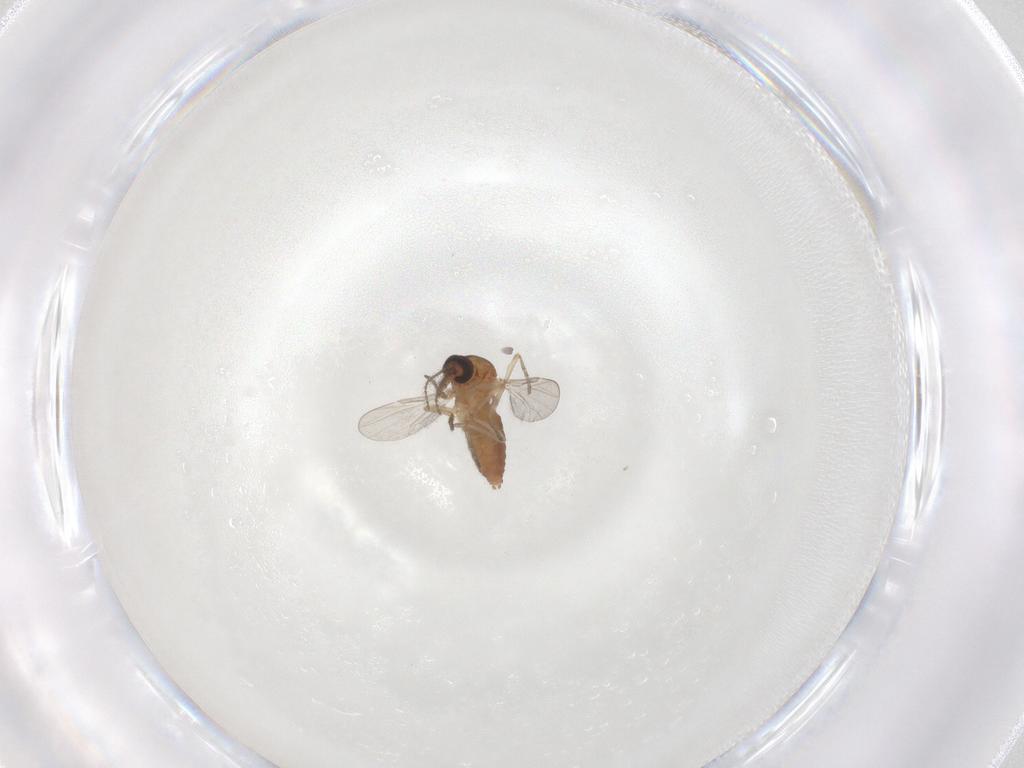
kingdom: Animalia
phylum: Arthropoda
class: Insecta
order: Diptera
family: Ceratopogonidae
